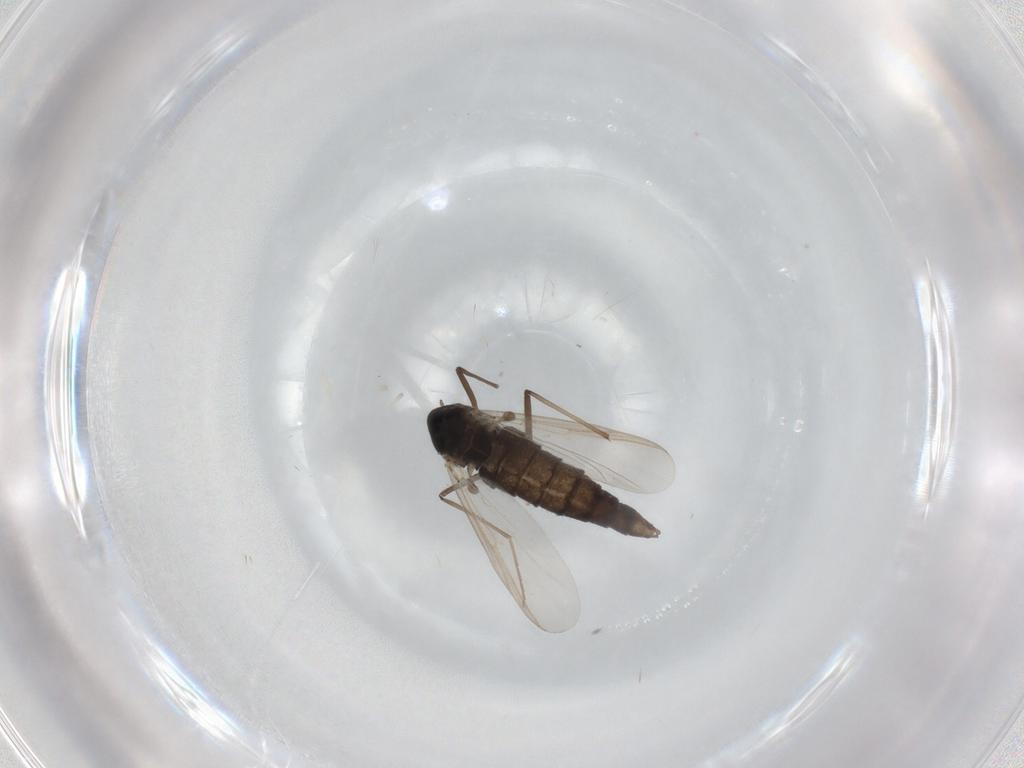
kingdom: Animalia
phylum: Arthropoda
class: Insecta
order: Diptera
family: Chironomidae
